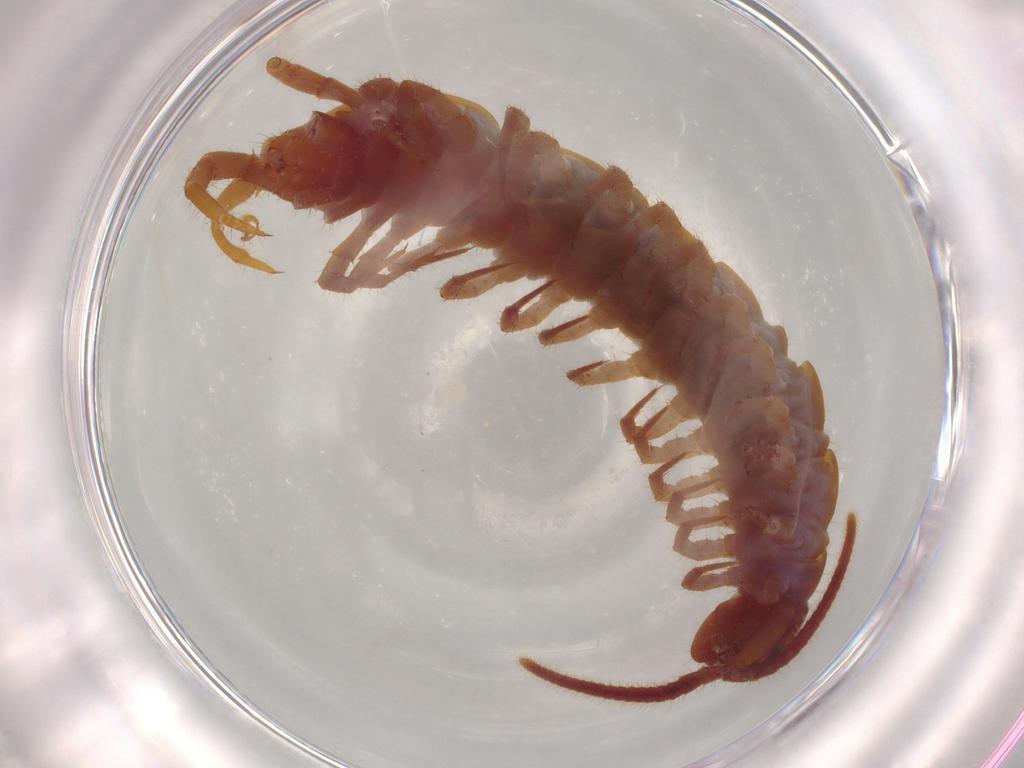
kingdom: Animalia
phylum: Arthropoda
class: Chilopoda
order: Lithobiomorpha
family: Lithobiidae
